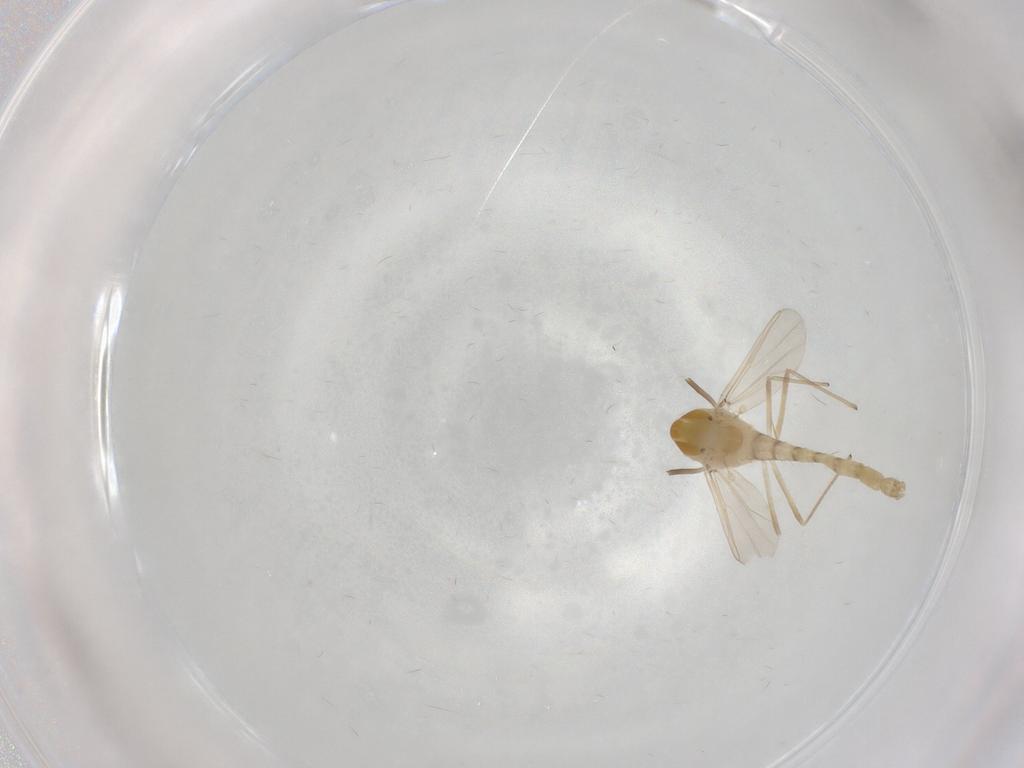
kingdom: Animalia
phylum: Arthropoda
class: Insecta
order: Diptera
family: Chironomidae
